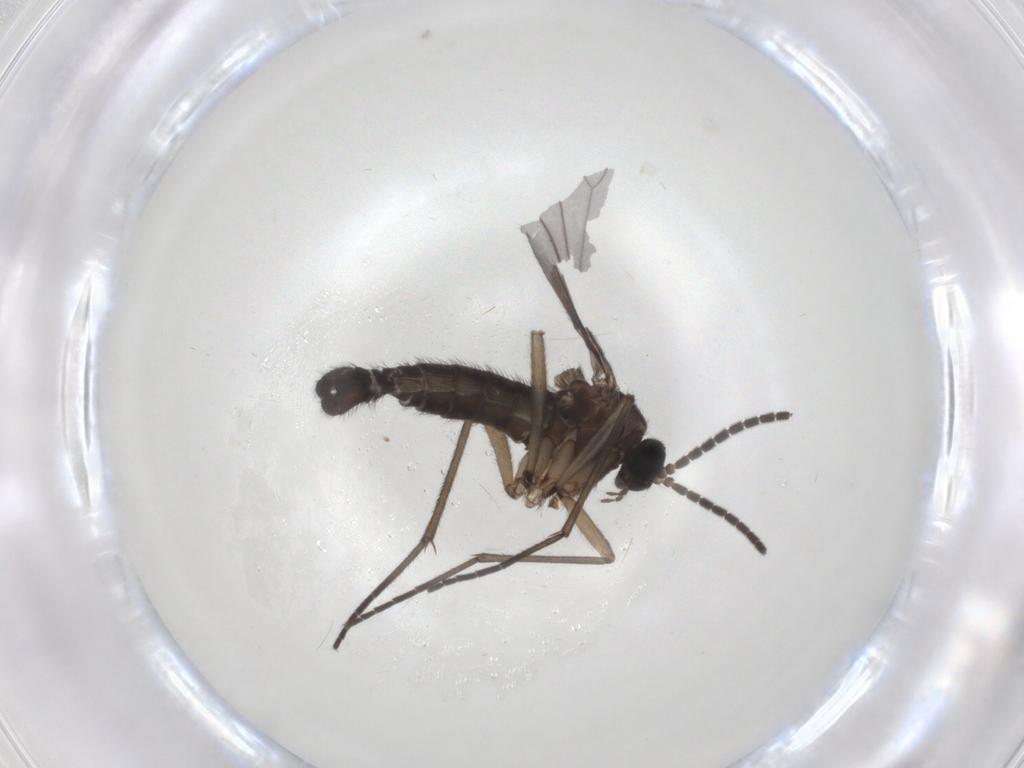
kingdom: Animalia
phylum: Arthropoda
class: Insecta
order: Diptera
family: Sciaridae
